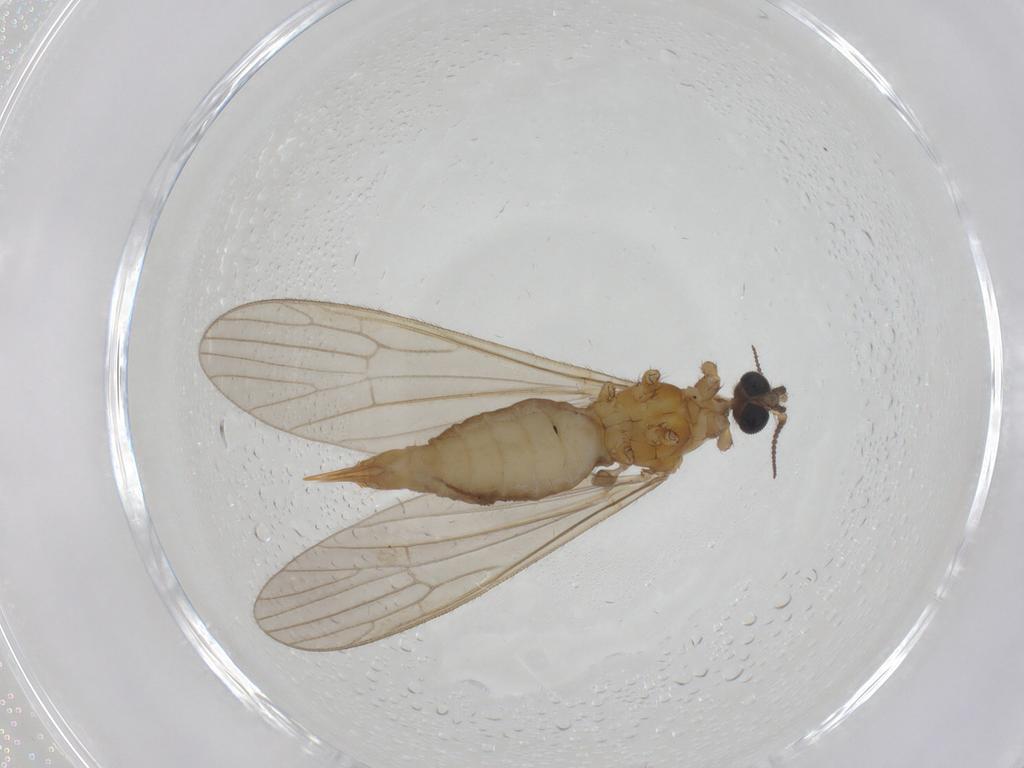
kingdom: Animalia
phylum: Arthropoda
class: Insecta
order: Diptera
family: Limoniidae
